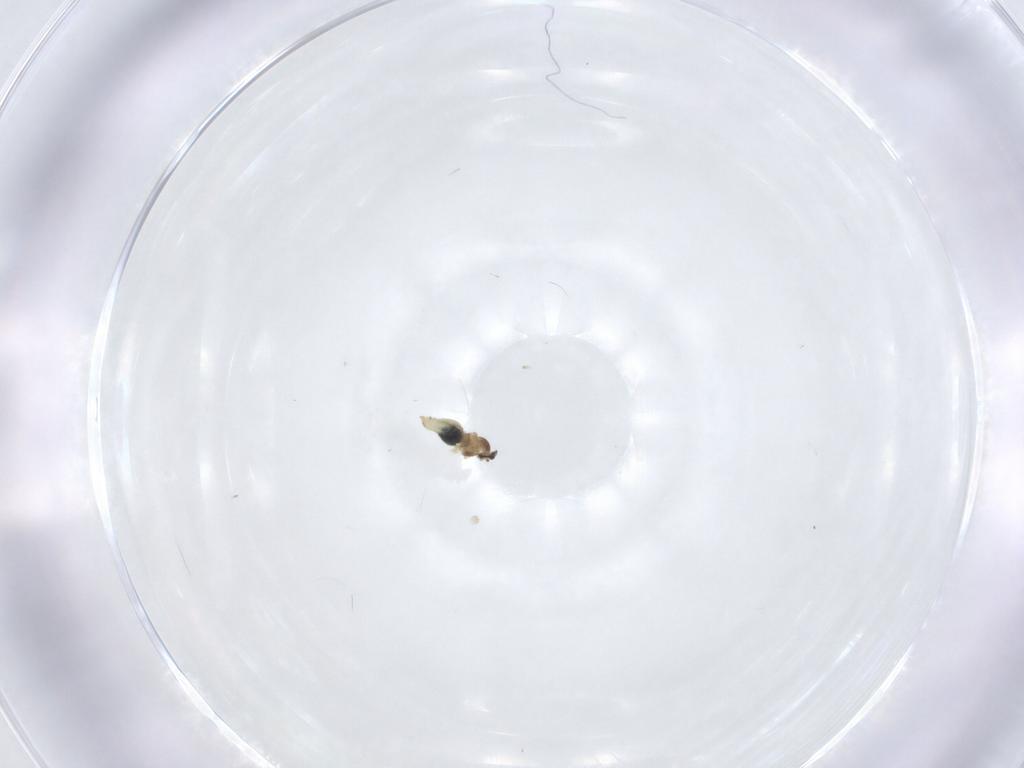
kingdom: Animalia
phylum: Arthropoda
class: Insecta
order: Diptera
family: Cecidomyiidae
